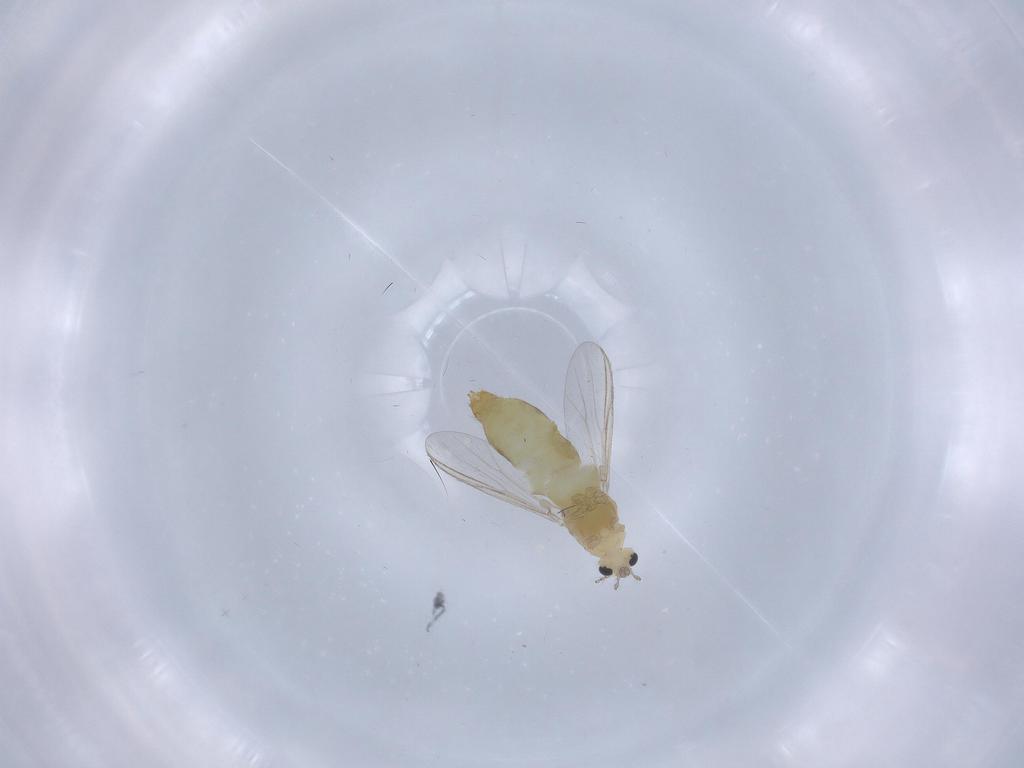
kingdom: Animalia
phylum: Arthropoda
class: Insecta
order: Diptera
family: Chironomidae
